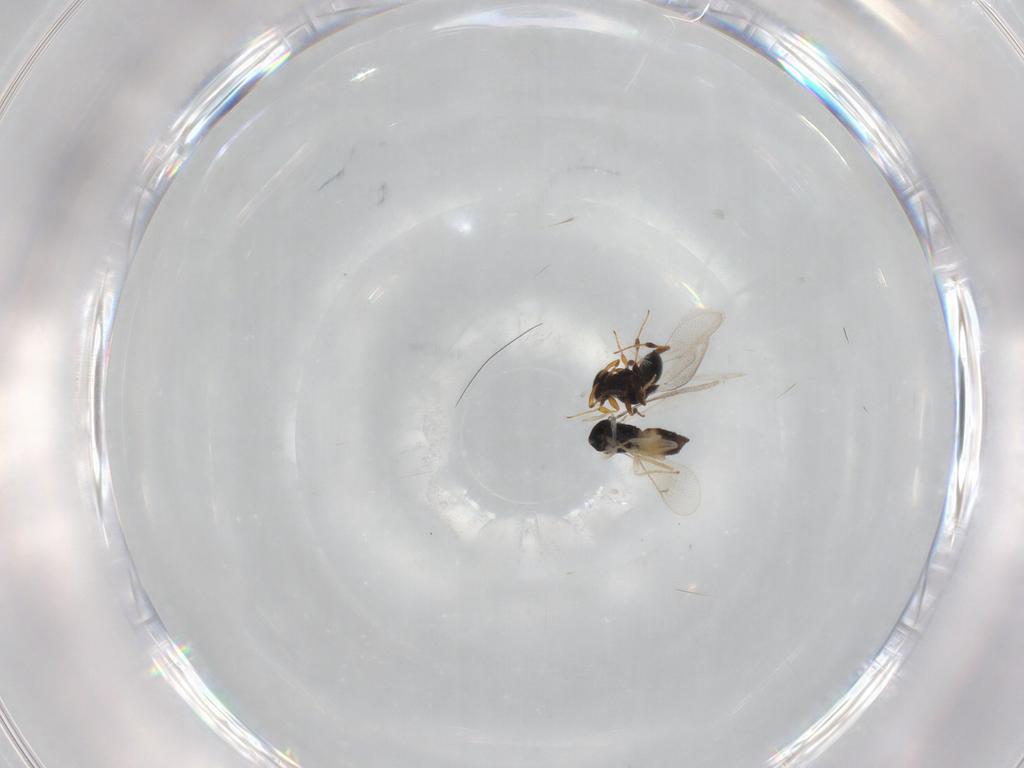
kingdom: Animalia
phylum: Arthropoda
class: Insecta
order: Hymenoptera
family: Platygastridae
